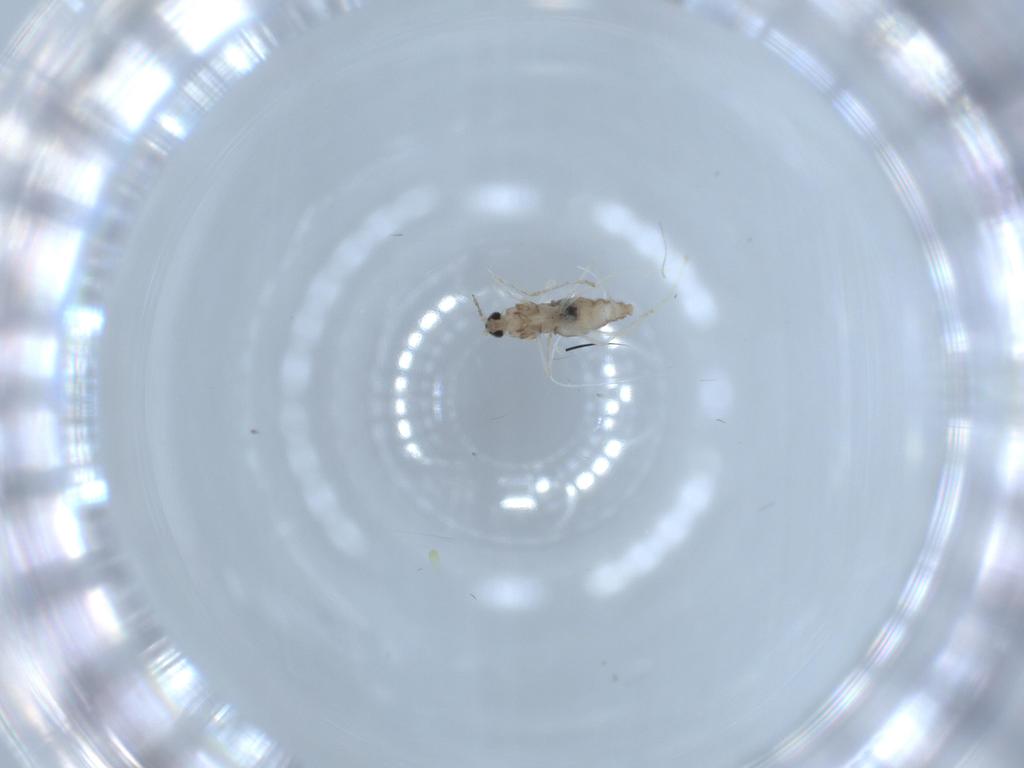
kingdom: Animalia
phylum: Arthropoda
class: Insecta
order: Diptera
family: Cecidomyiidae
